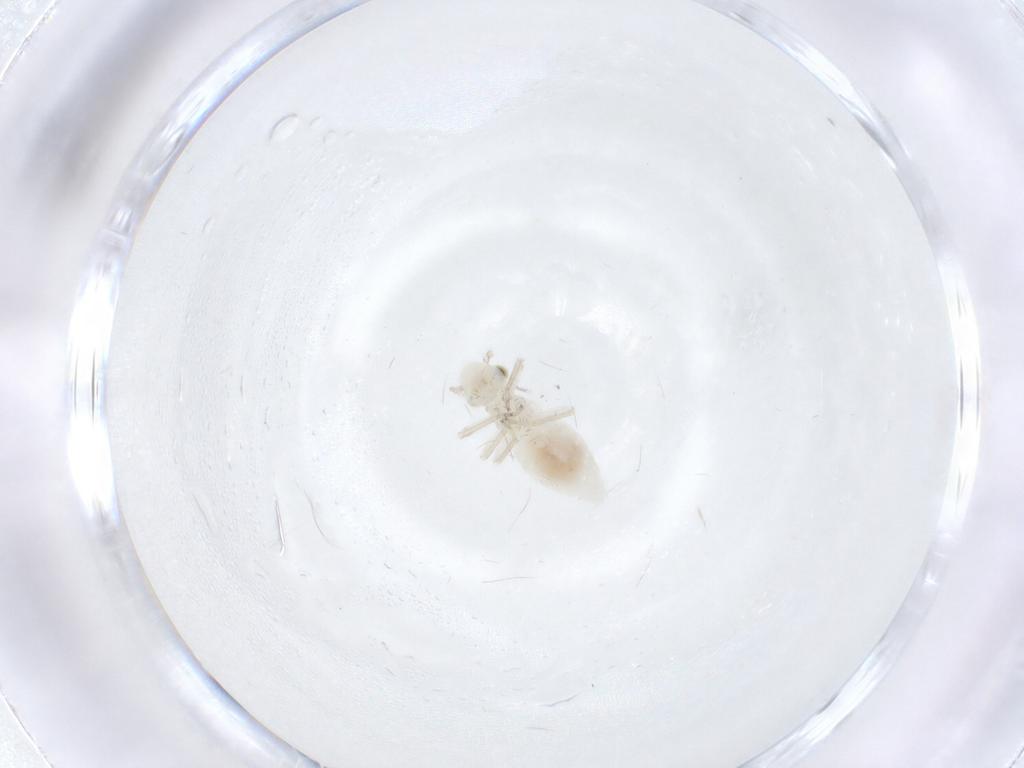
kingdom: Animalia
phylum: Arthropoda
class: Insecta
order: Psocodea
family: Caeciliusidae
